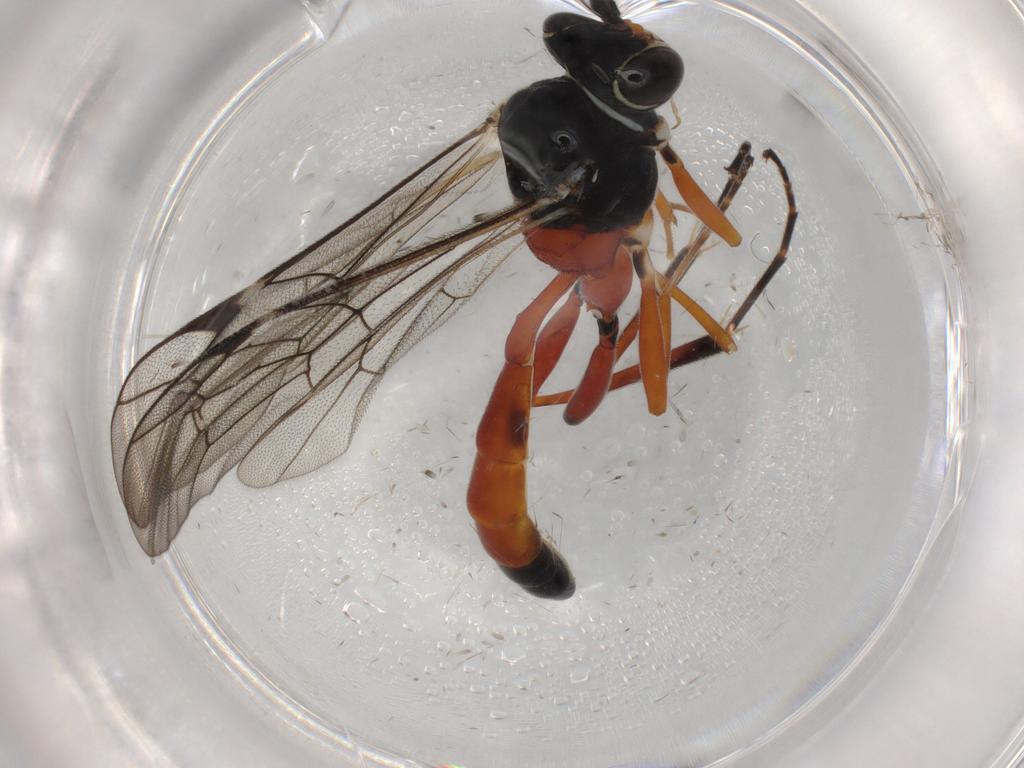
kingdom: Animalia
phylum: Arthropoda
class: Insecta
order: Hymenoptera
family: Ichneumonidae
